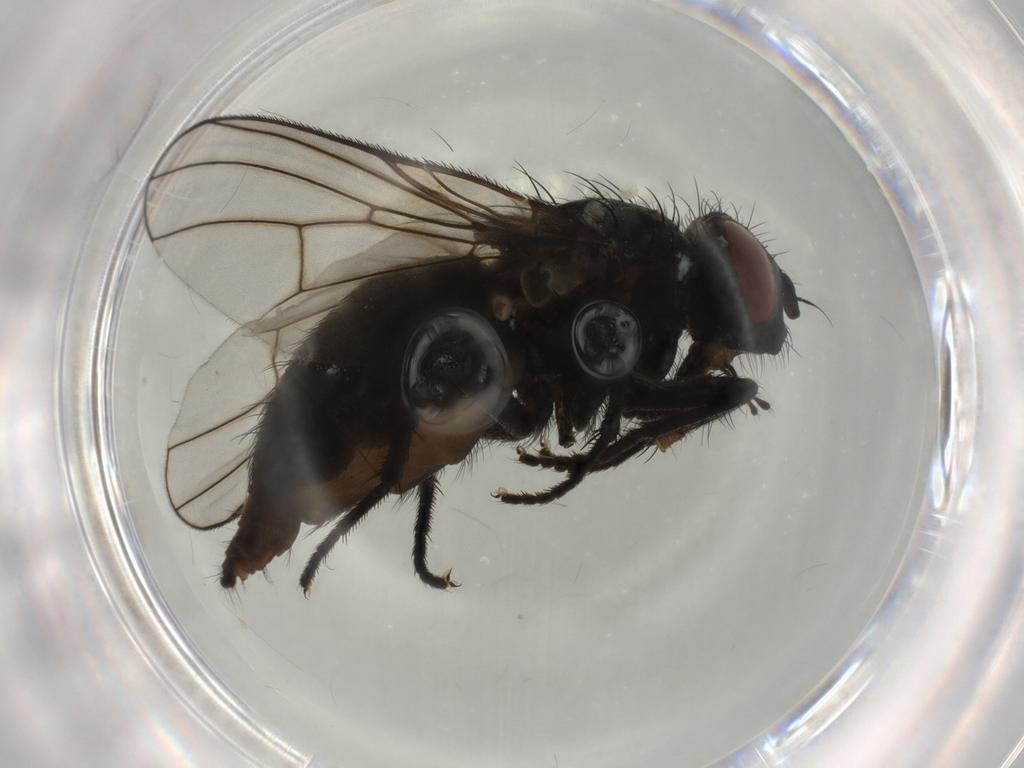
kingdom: Animalia
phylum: Arthropoda
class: Insecta
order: Diptera
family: Muscidae
